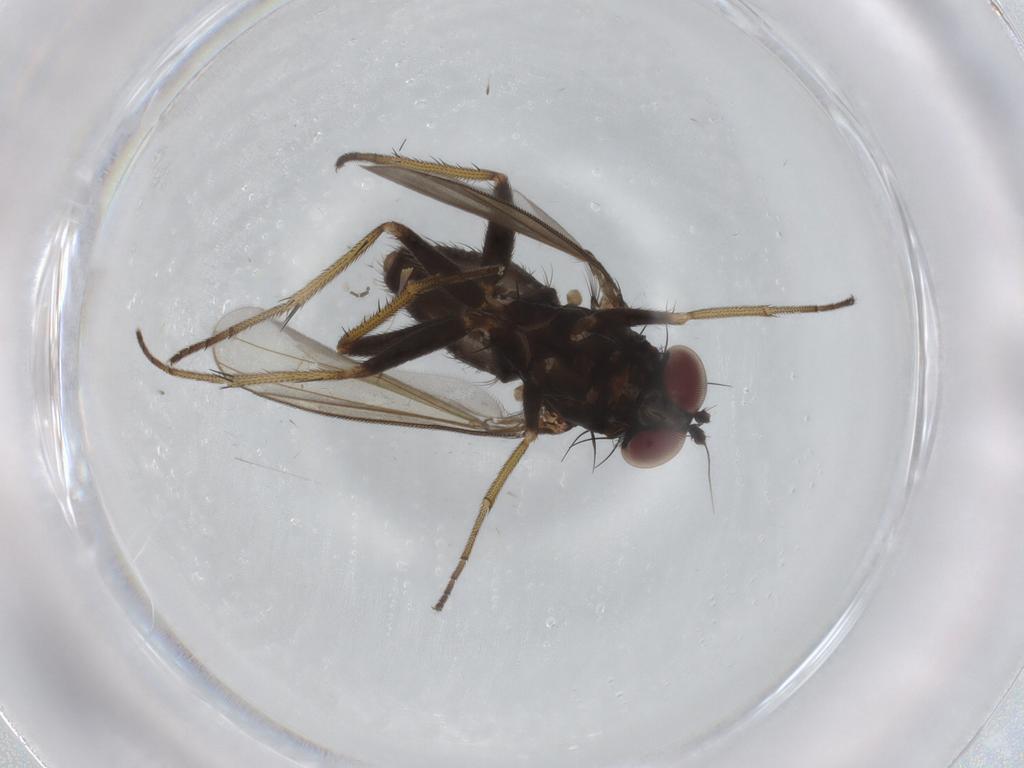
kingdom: Animalia
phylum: Arthropoda
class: Insecta
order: Diptera
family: Dolichopodidae
